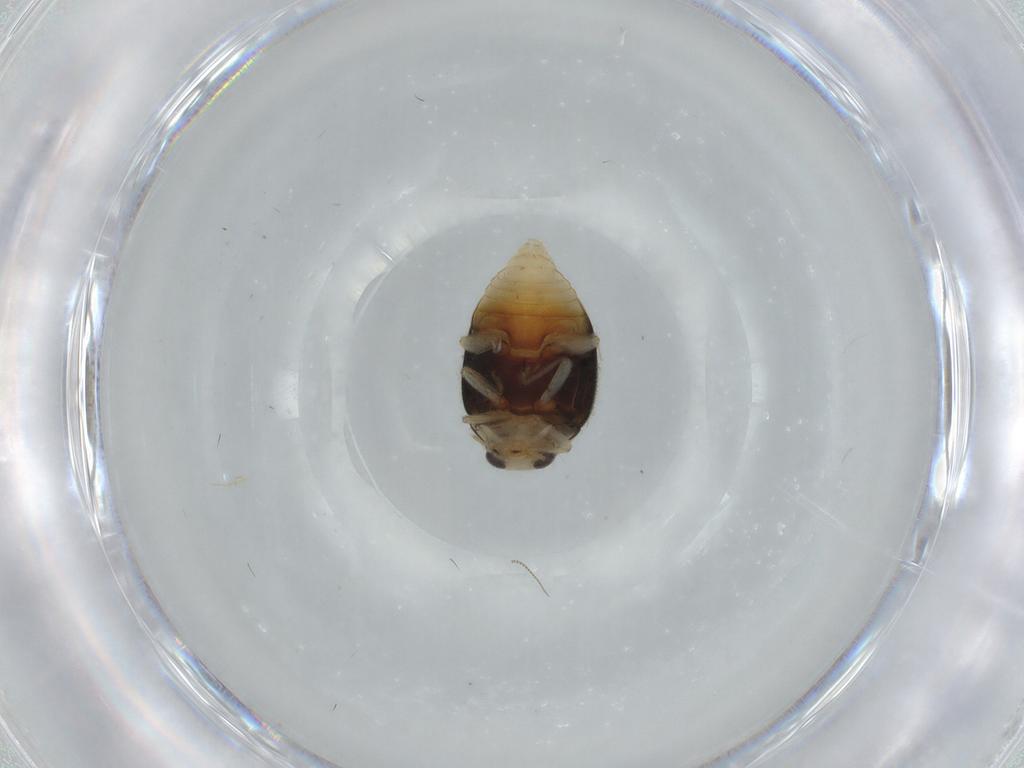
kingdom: Animalia
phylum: Arthropoda
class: Insecta
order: Coleoptera
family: Coccinellidae
